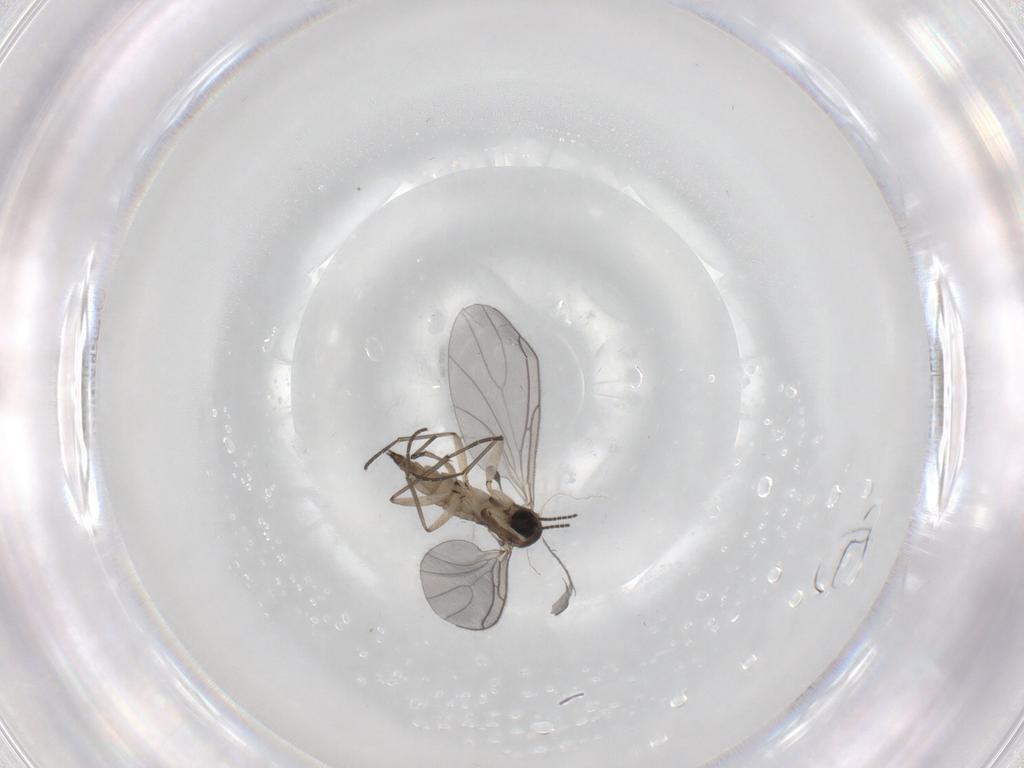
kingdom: Animalia
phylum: Arthropoda
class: Insecta
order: Diptera
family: Sciaridae
